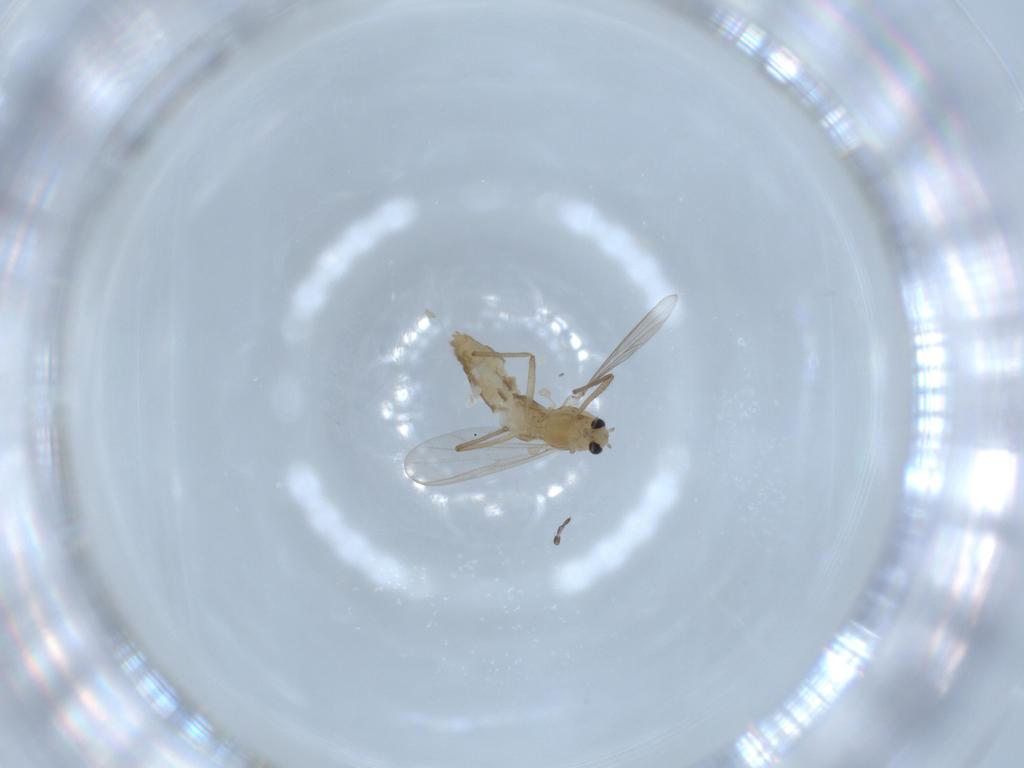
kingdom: Animalia
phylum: Arthropoda
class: Insecta
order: Diptera
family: Chironomidae
